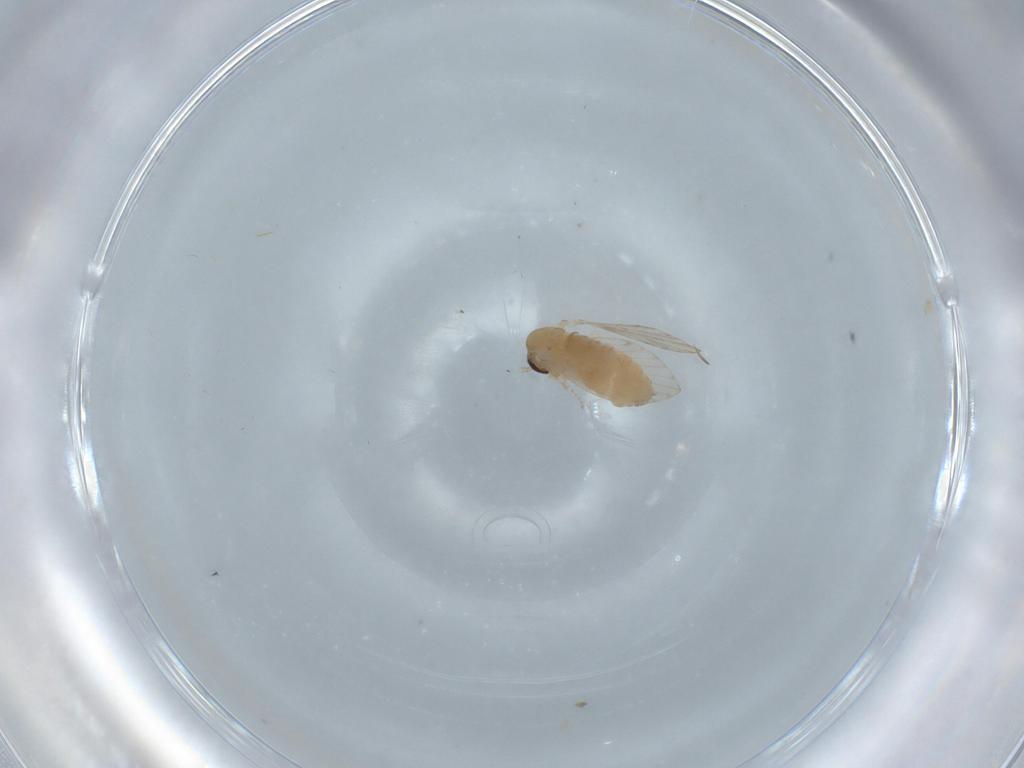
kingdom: Animalia
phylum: Arthropoda
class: Insecta
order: Diptera
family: Psychodidae
